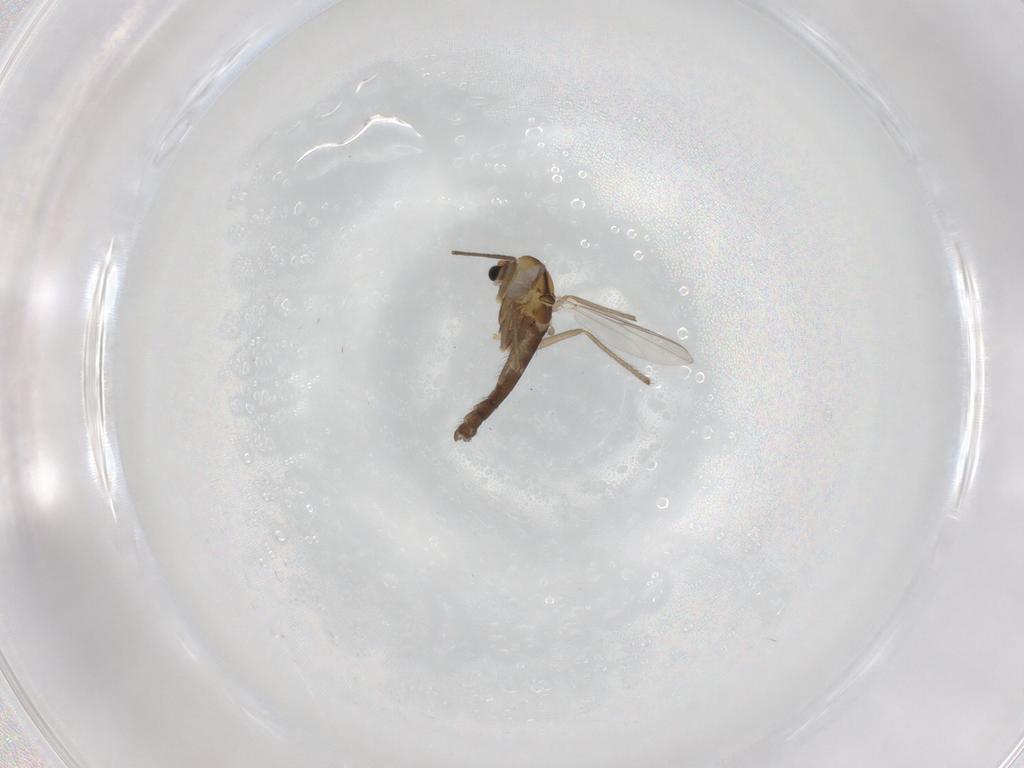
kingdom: Animalia
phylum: Arthropoda
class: Insecta
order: Diptera
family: Chironomidae
